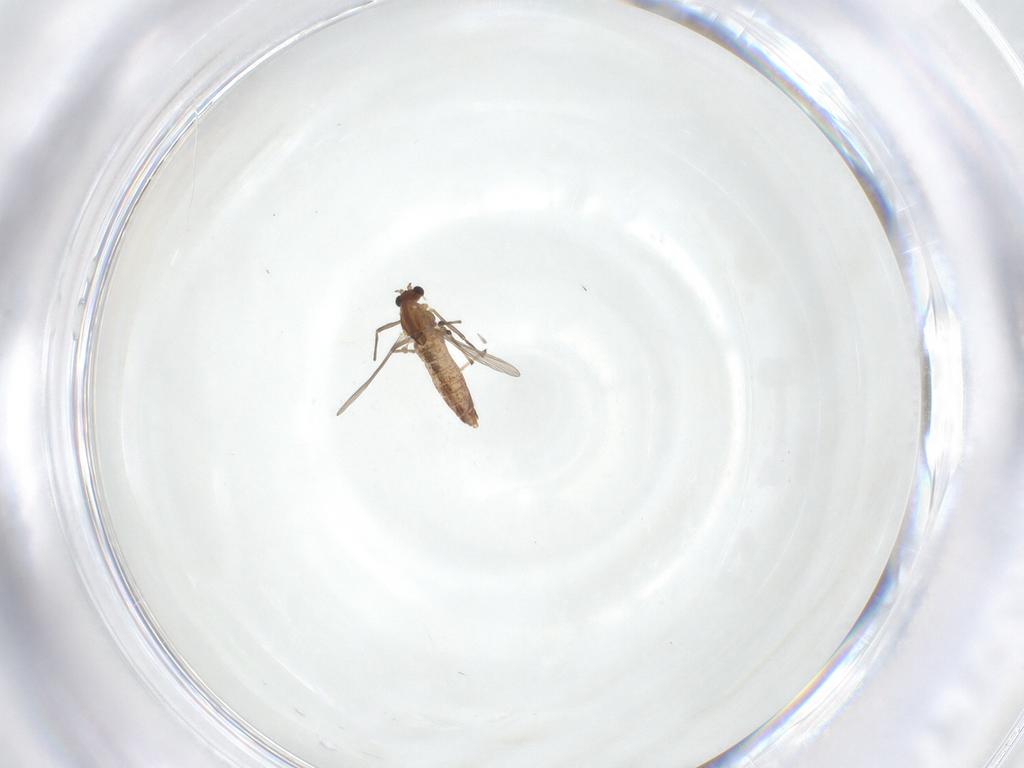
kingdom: Animalia
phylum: Arthropoda
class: Insecta
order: Diptera
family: Chironomidae
